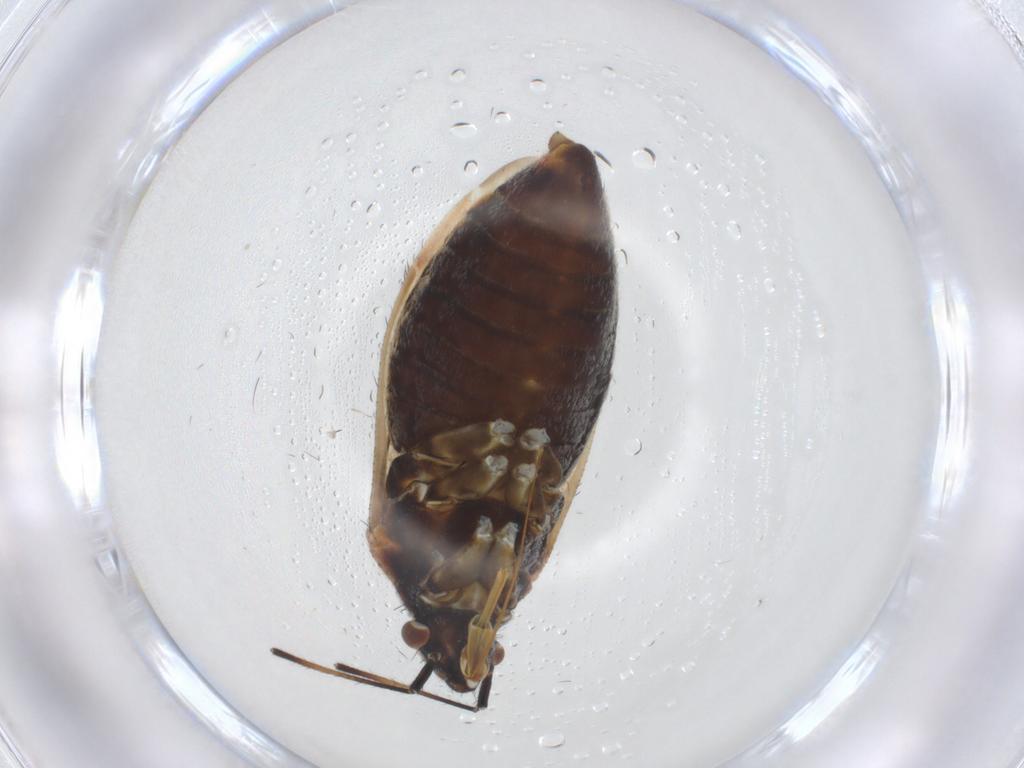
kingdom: Animalia
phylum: Arthropoda
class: Insecta
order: Hemiptera
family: Miridae
